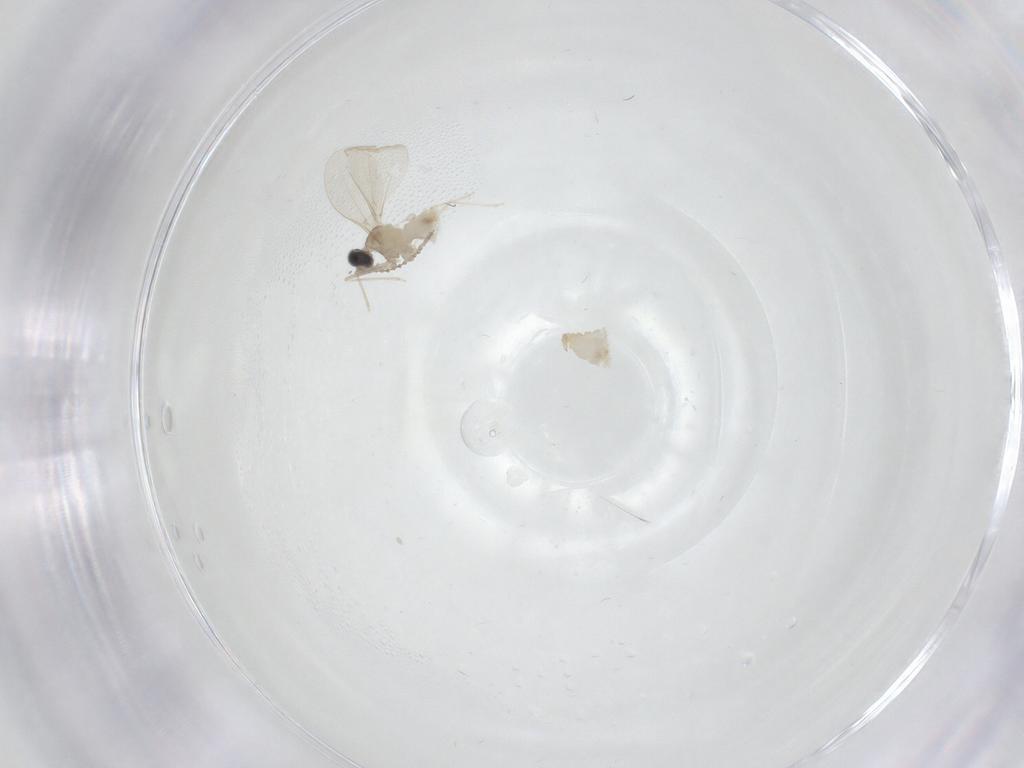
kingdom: Animalia
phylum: Arthropoda
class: Insecta
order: Diptera
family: Cecidomyiidae
